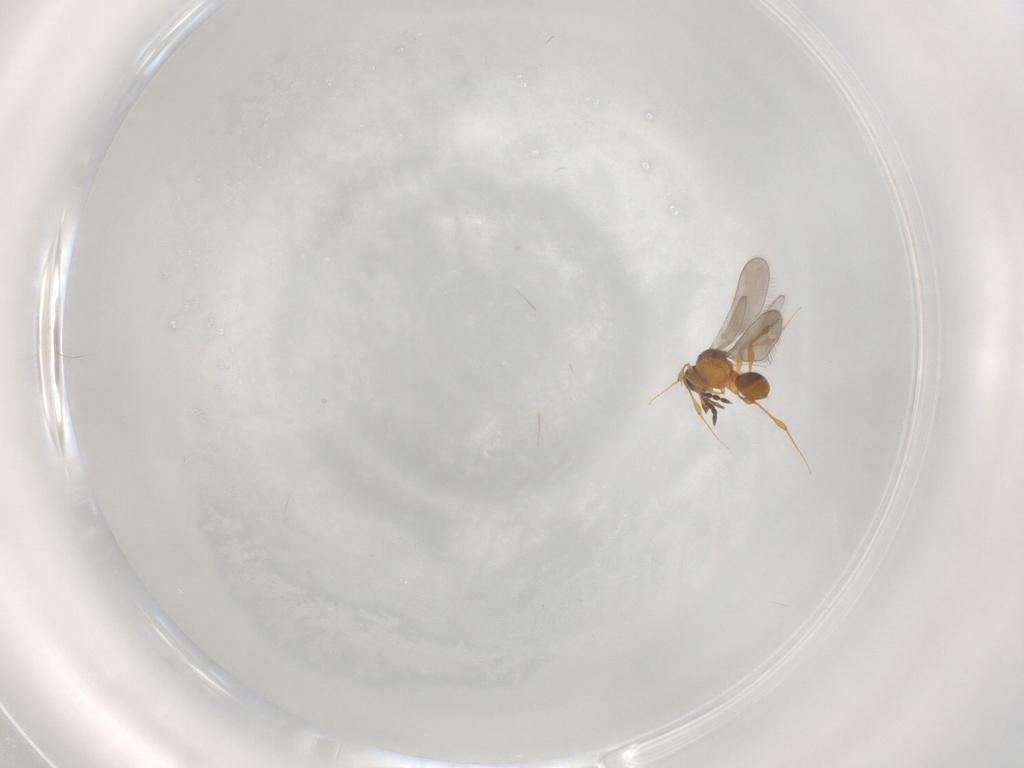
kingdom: Animalia
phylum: Arthropoda
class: Insecta
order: Hymenoptera
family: Platygastridae
